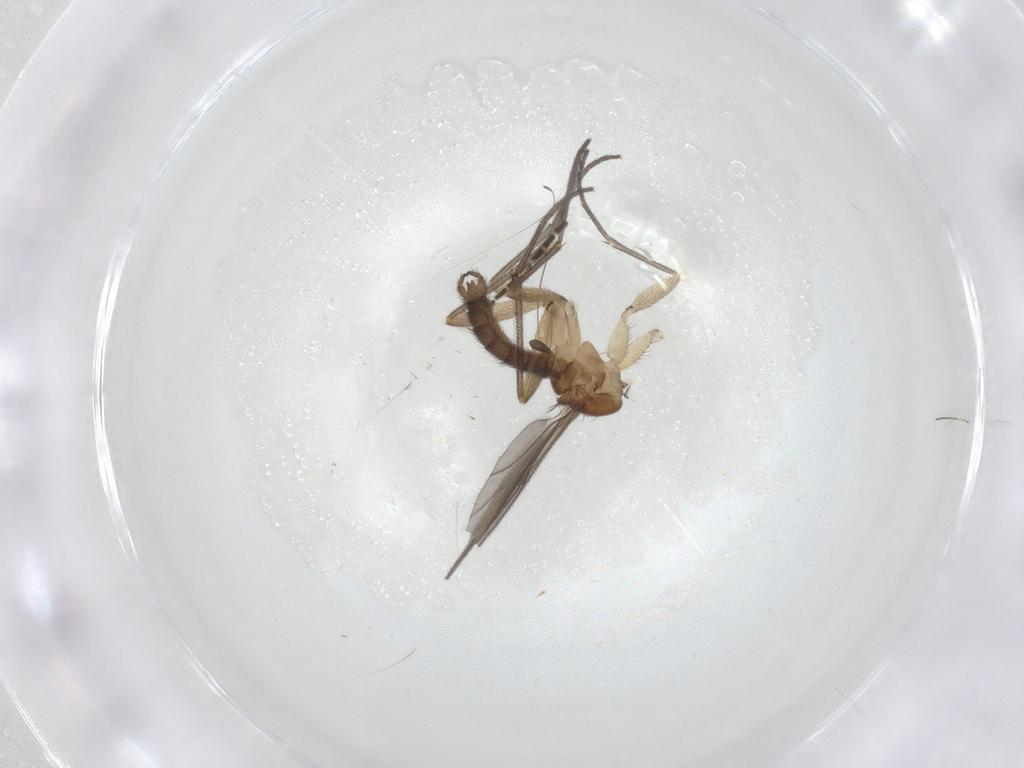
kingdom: Animalia
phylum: Arthropoda
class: Insecta
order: Diptera
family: Sciaridae
